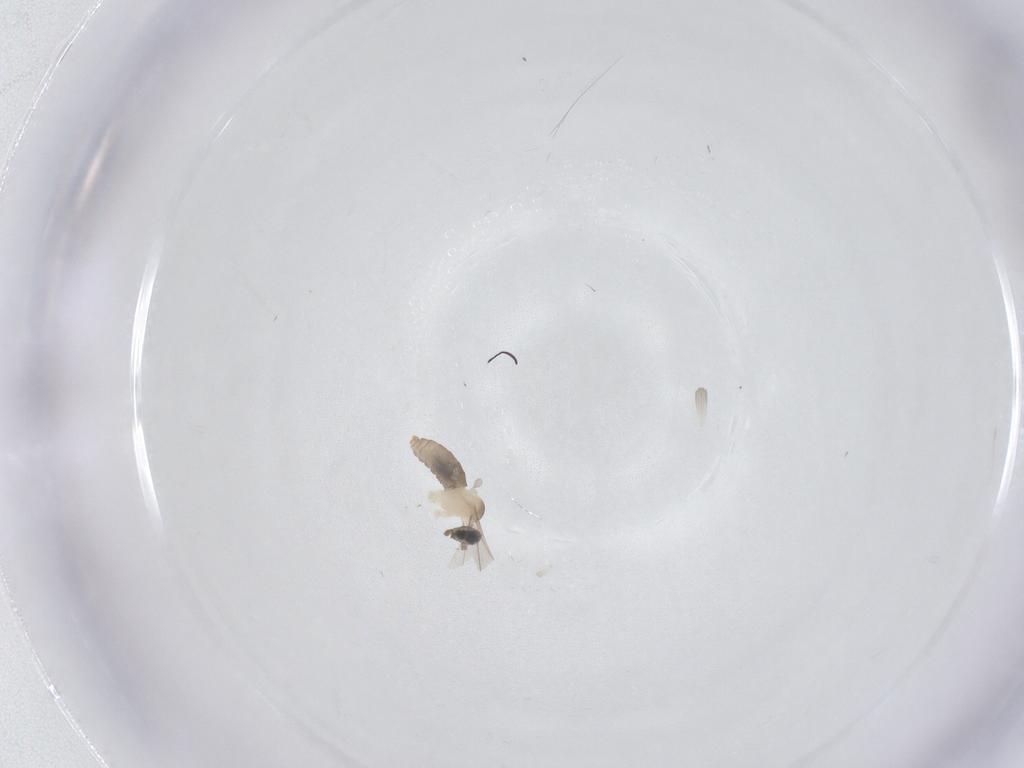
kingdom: Animalia
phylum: Arthropoda
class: Insecta
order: Diptera
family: Cecidomyiidae
